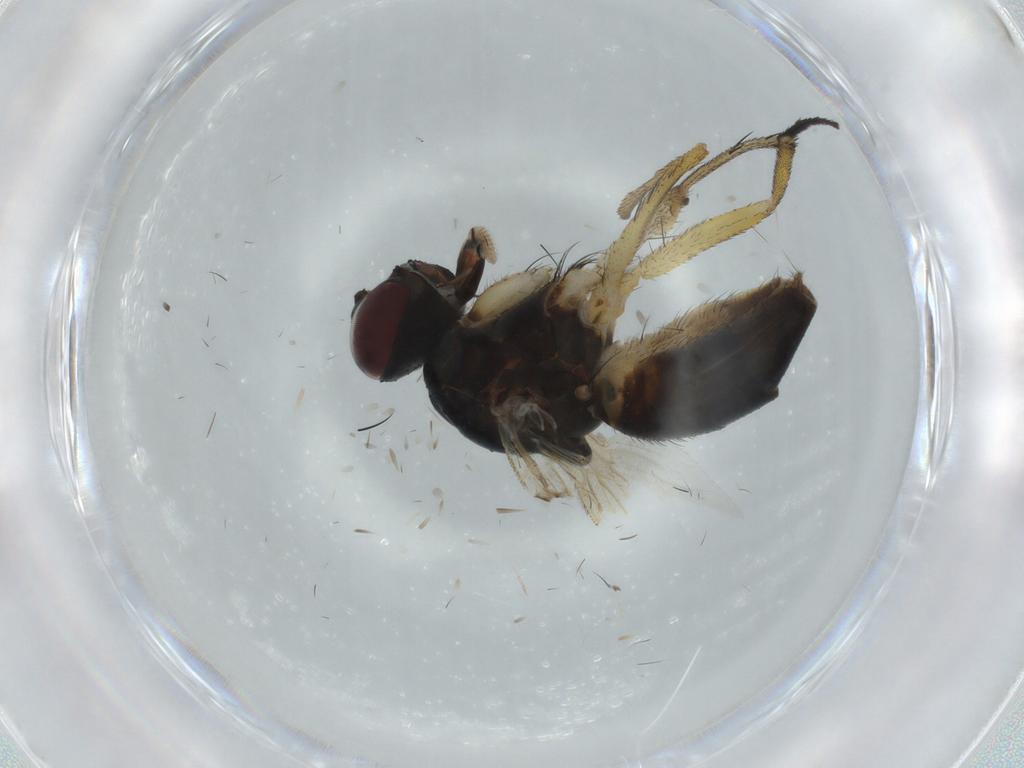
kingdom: Animalia
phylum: Arthropoda
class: Insecta
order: Diptera
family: Muscidae
